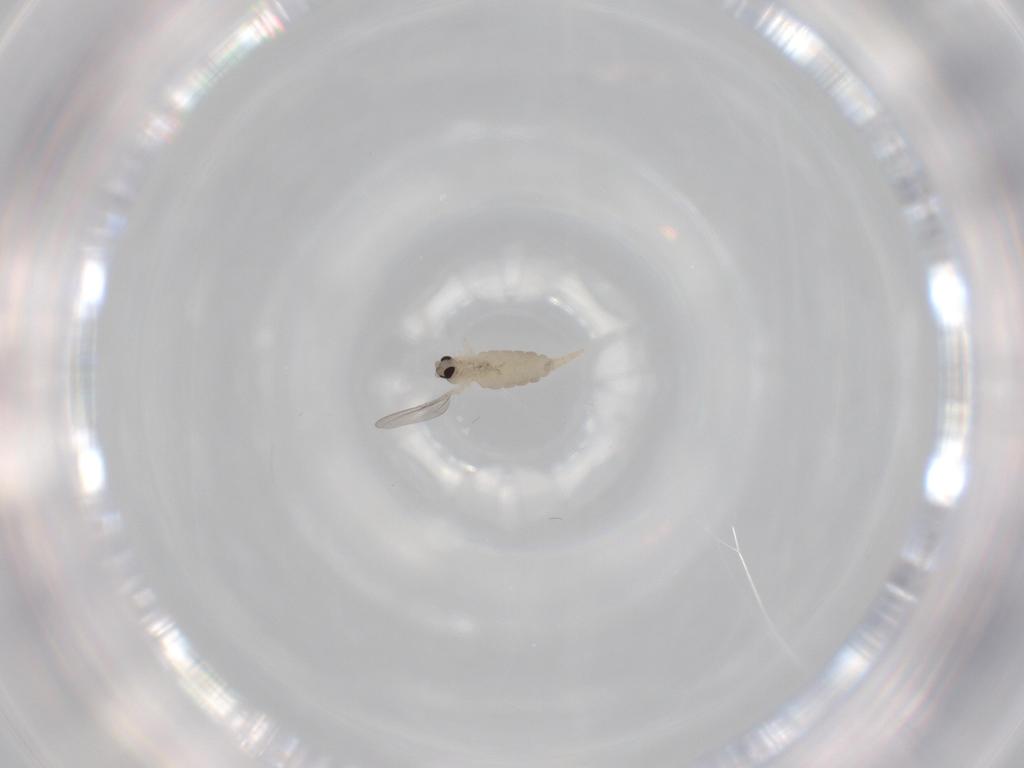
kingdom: Animalia
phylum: Arthropoda
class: Insecta
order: Diptera
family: Cecidomyiidae
